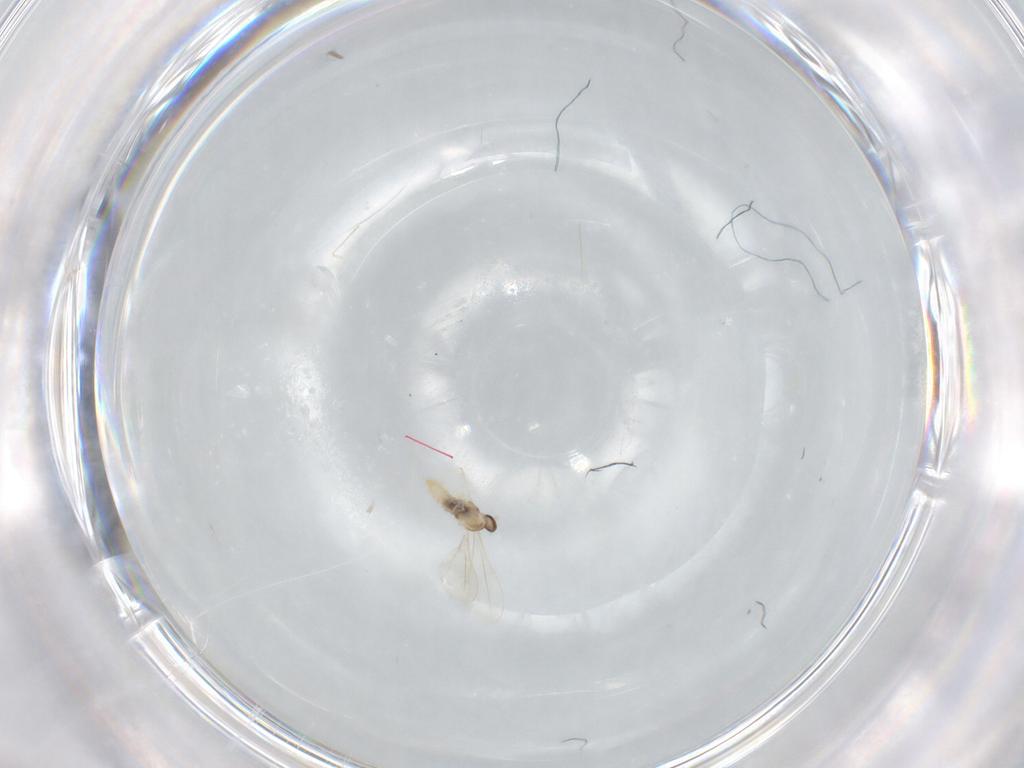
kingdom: Animalia
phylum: Arthropoda
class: Insecta
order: Diptera
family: Cecidomyiidae
